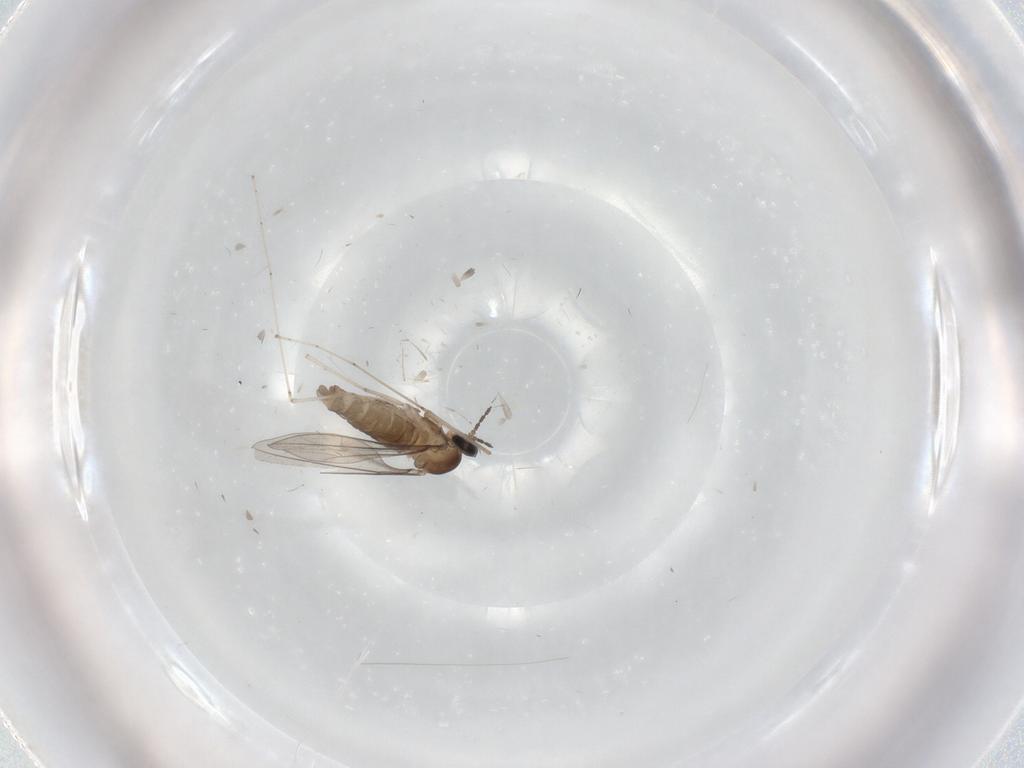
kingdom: Animalia
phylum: Arthropoda
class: Insecta
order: Diptera
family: Cecidomyiidae
